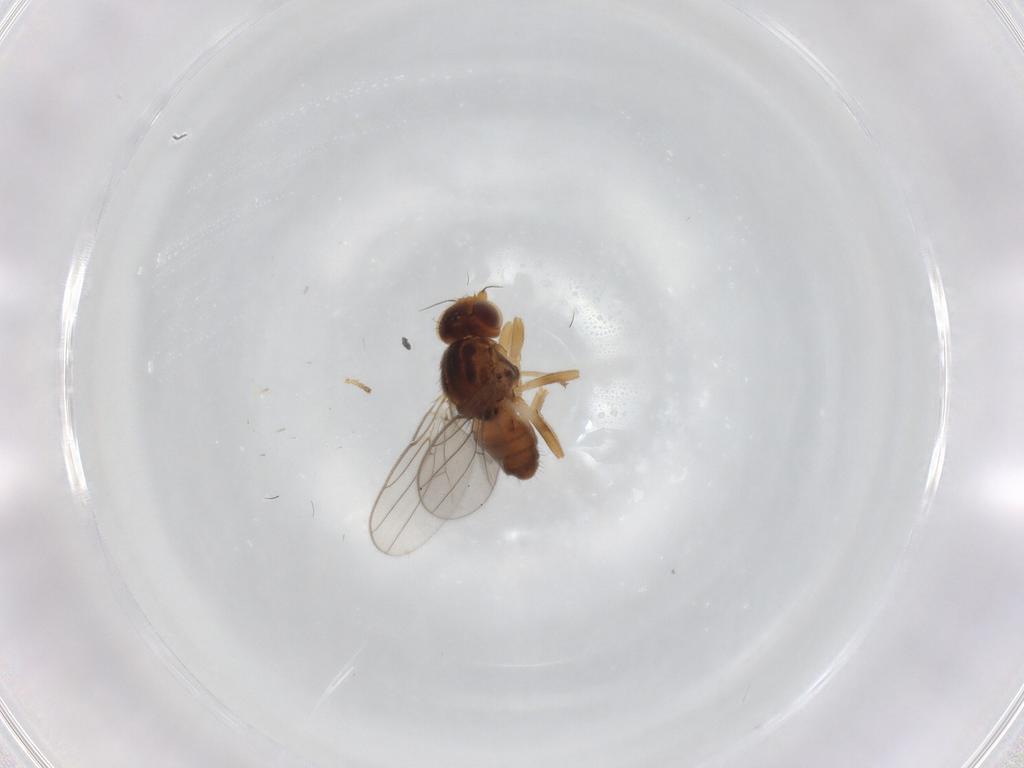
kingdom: Animalia
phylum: Arthropoda
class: Insecta
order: Diptera
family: Chloropidae
